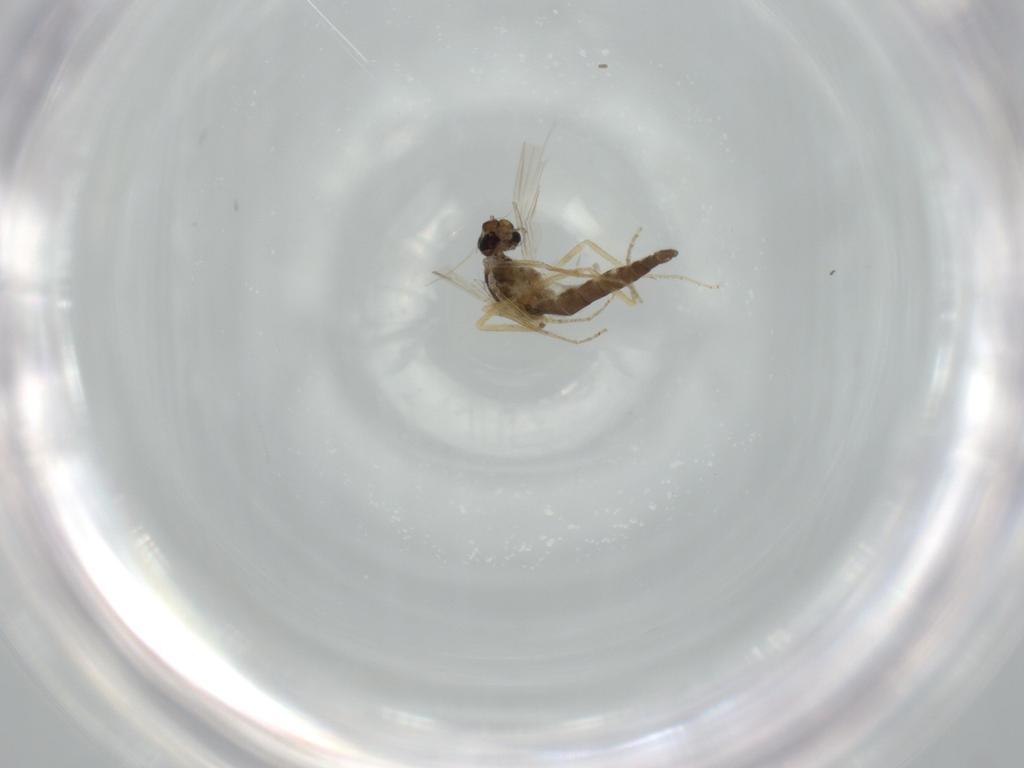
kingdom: Animalia
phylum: Arthropoda
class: Insecta
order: Diptera
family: Ceratopogonidae
